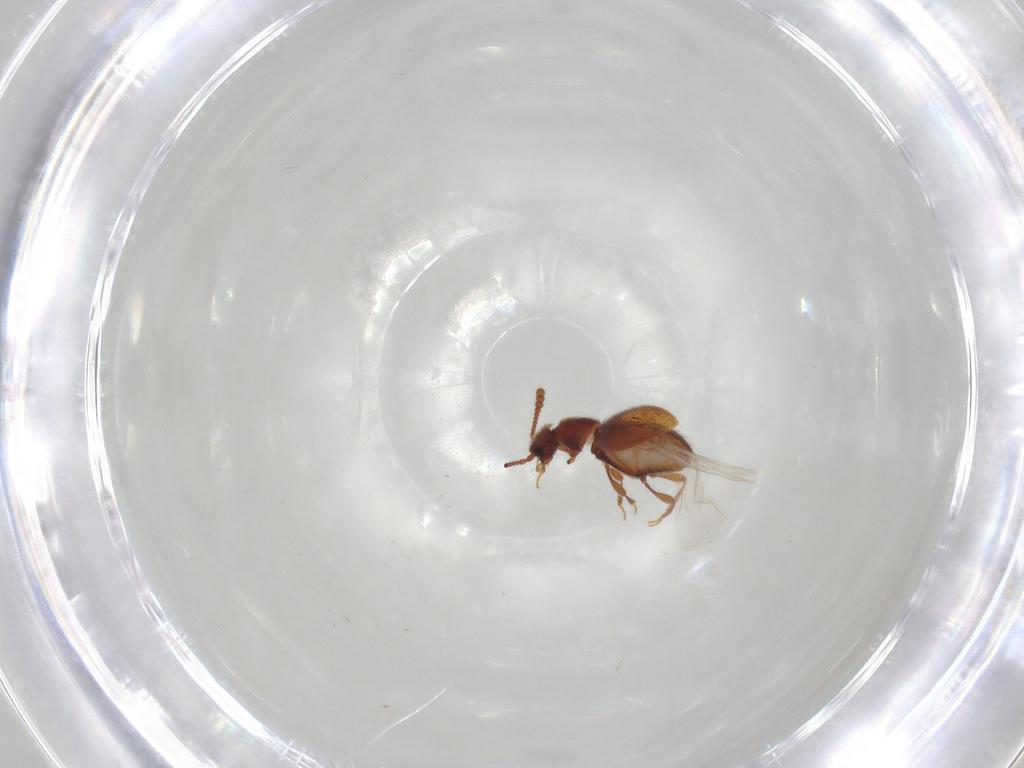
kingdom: Animalia
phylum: Arthropoda
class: Insecta
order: Coleoptera
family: Staphylinidae
